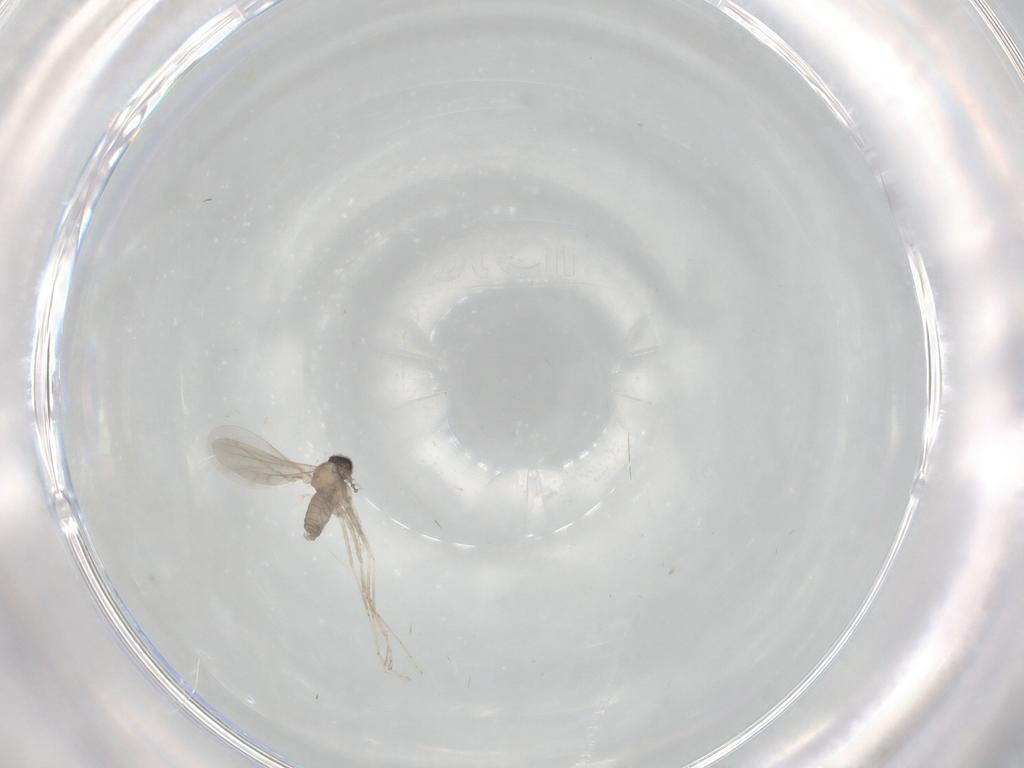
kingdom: Animalia
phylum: Arthropoda
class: Insecta
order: Diptera
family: Cecidomyiidae
